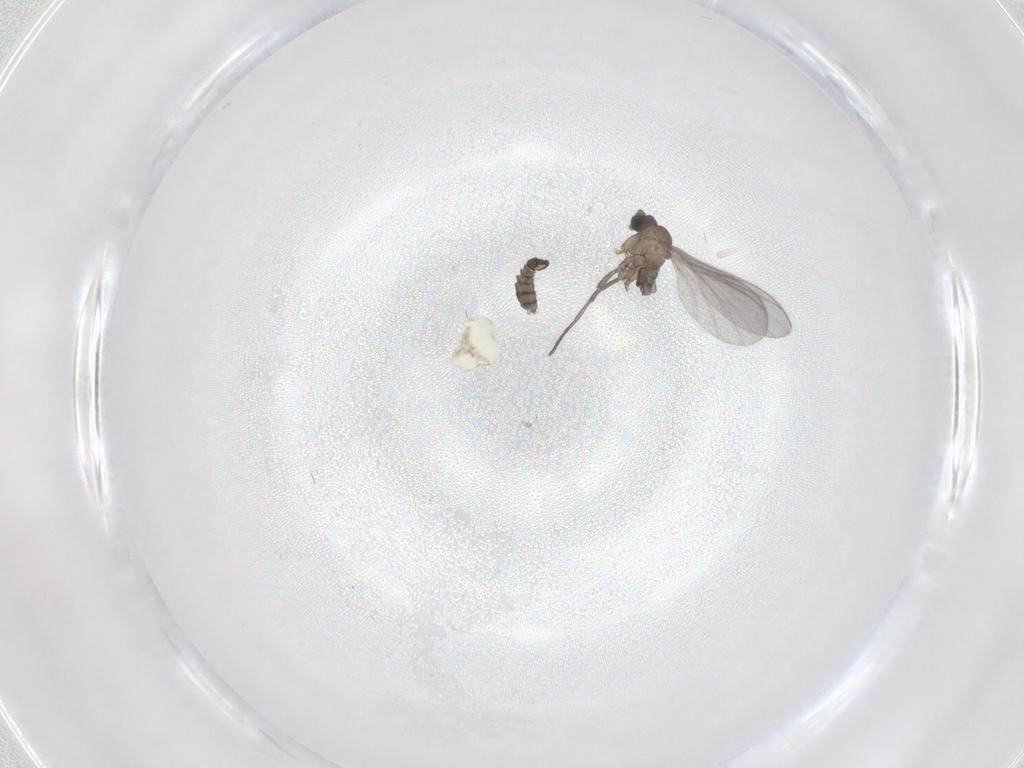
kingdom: Animalia
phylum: Arthropoda
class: Insecta
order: Diptera
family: Sciaridae
